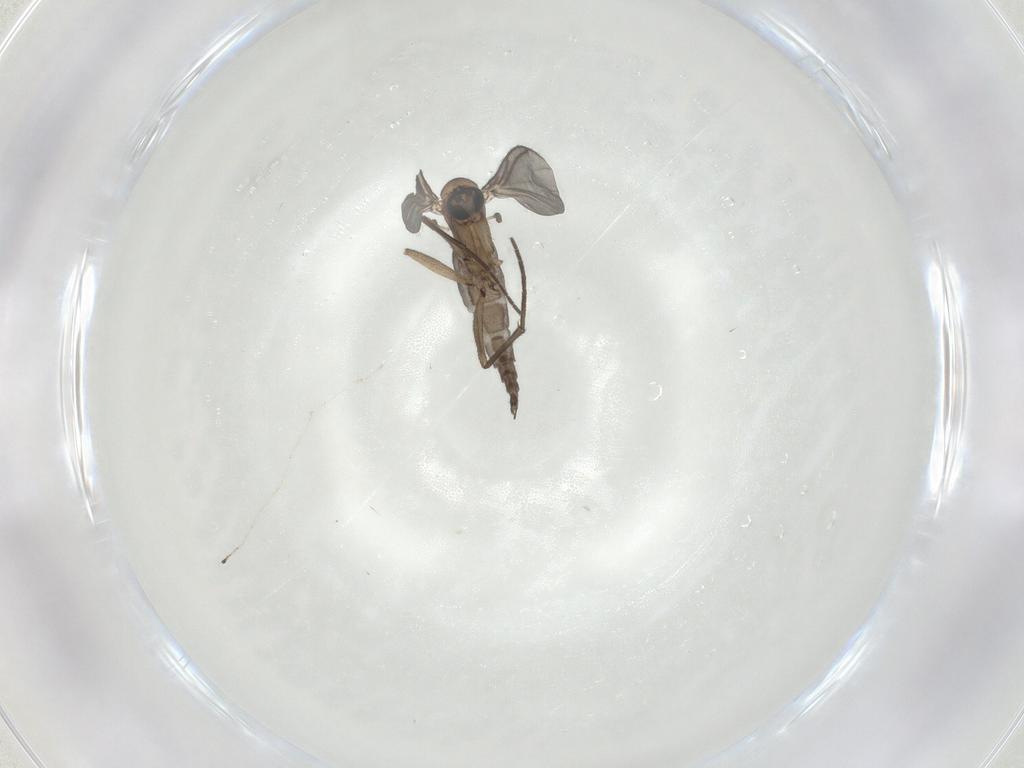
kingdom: Animalia
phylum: Arthropoda
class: Insecta
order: Diptera
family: Sciaridae
